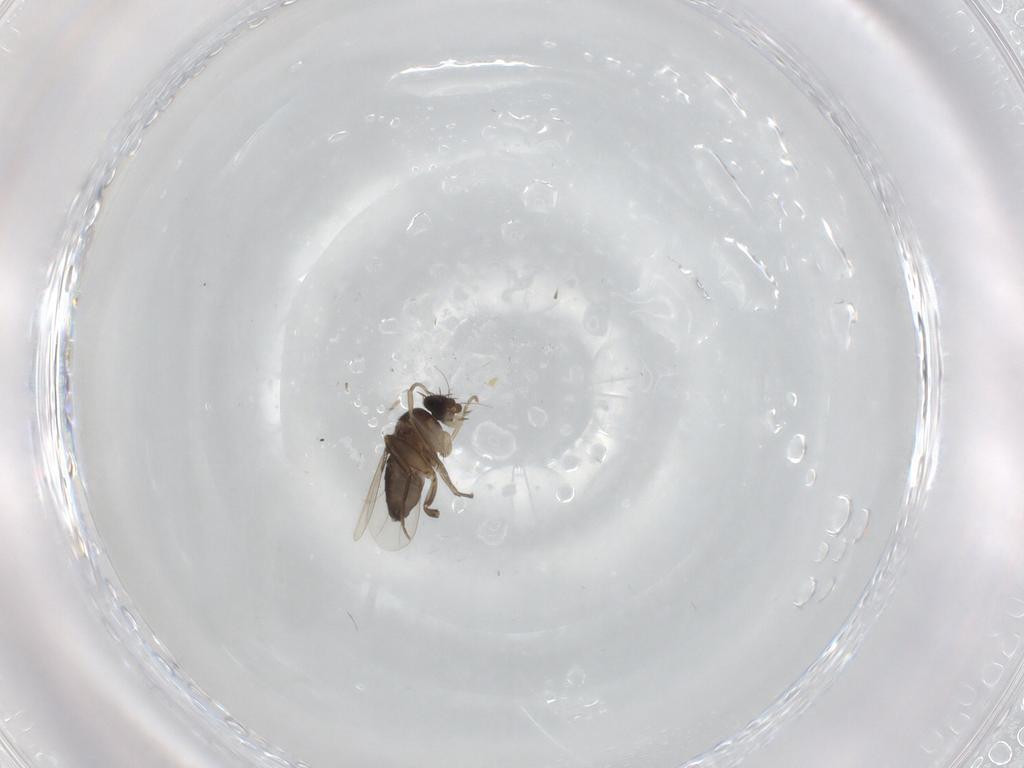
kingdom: Animalia
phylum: Arthropoda
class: Insecta
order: Diptera
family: Phoridae
